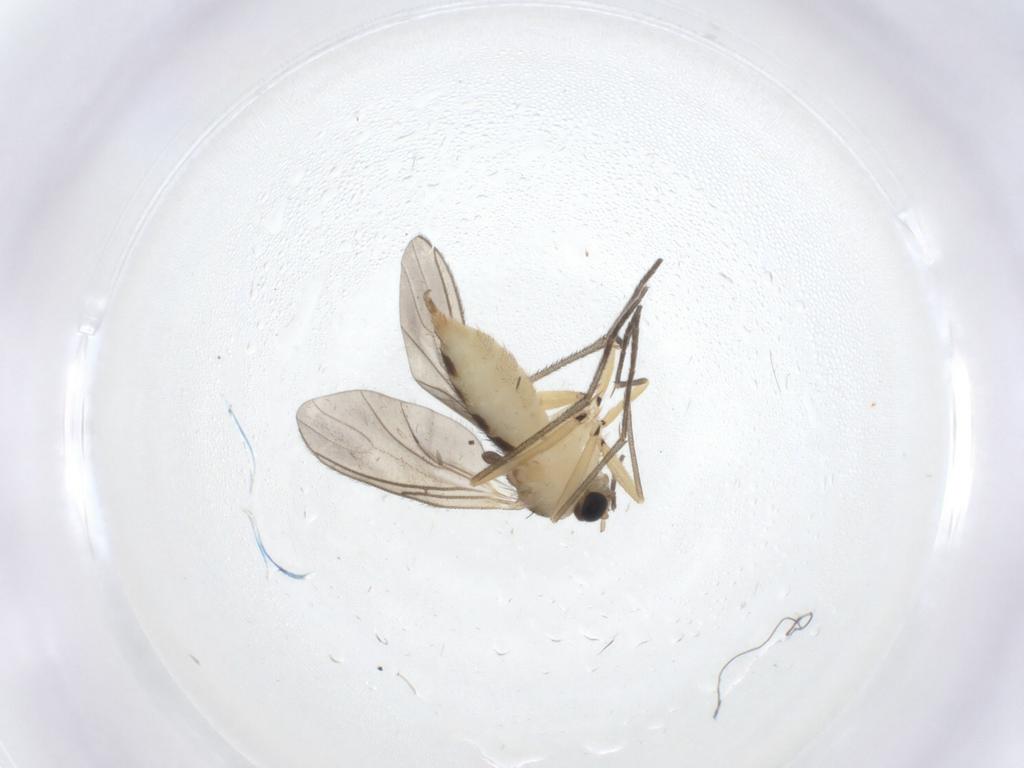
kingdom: Animalia
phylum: Arthropoda
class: Insecta
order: Diptera
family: Sciaridae
